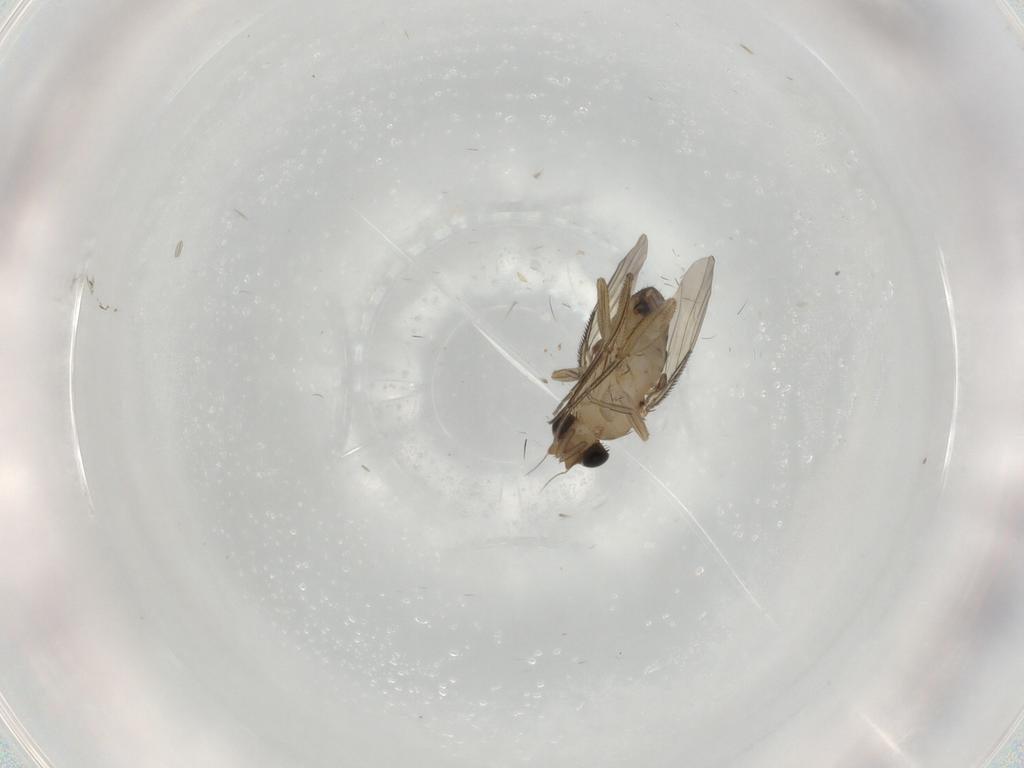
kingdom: Animalia
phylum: Arthropoda
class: Insecta
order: Diptera
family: Phoridae
